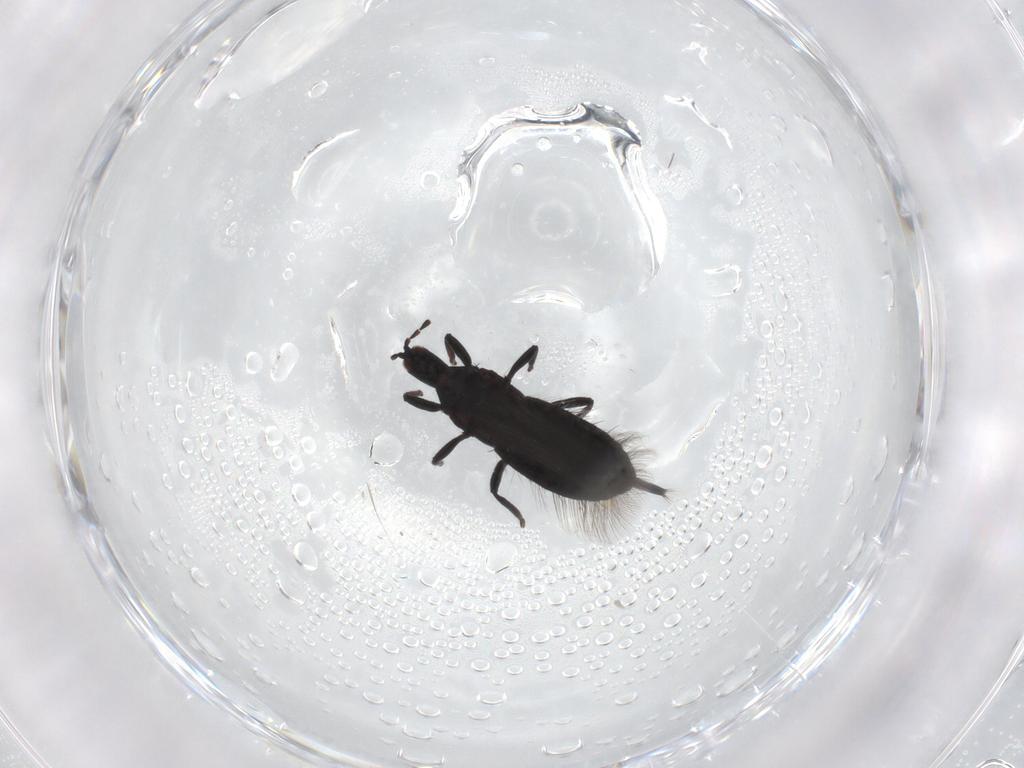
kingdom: Animalia
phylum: Arthropoda
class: Insecta
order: Thysanoptera
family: Phlaeothripidae
